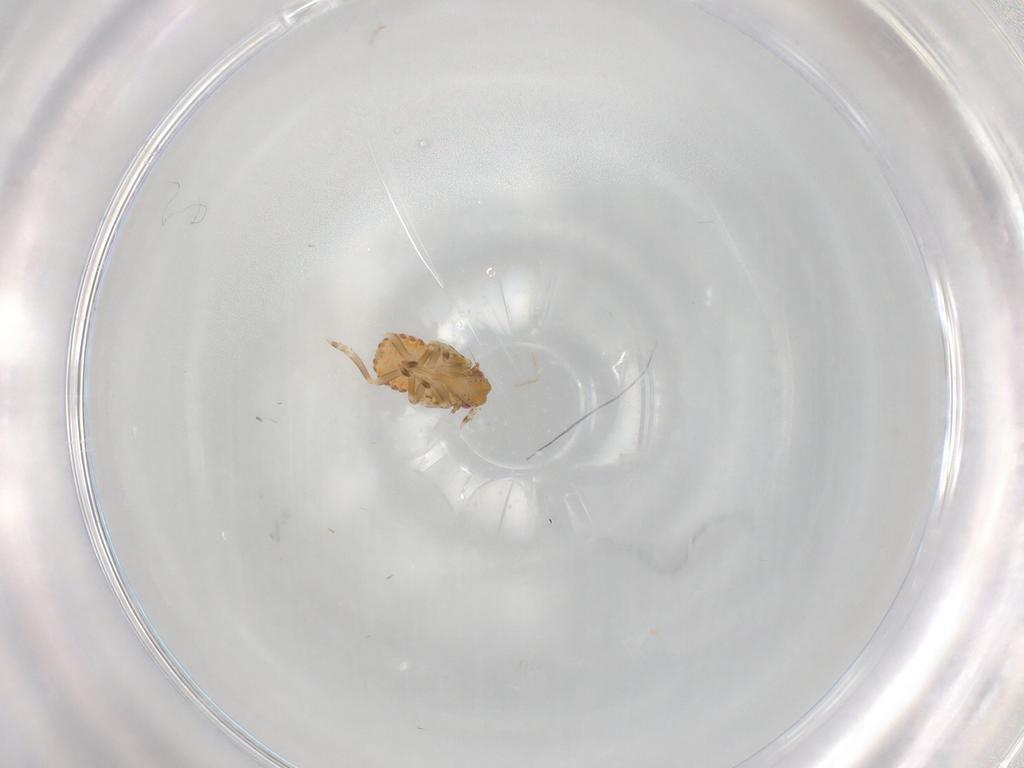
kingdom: Animalia
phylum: Arthropoda
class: Insecta
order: Hemiptera
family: Flatidae
